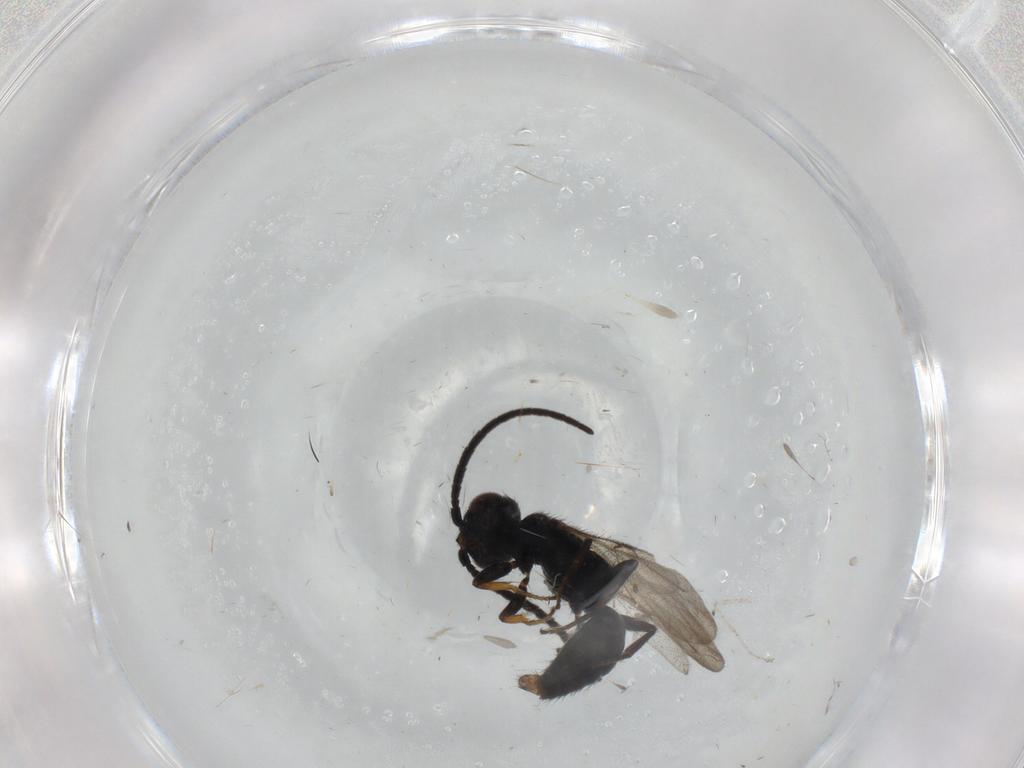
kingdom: Animalia
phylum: Arthropoda
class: Insecta
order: Hymenoptera
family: Bethylidae
